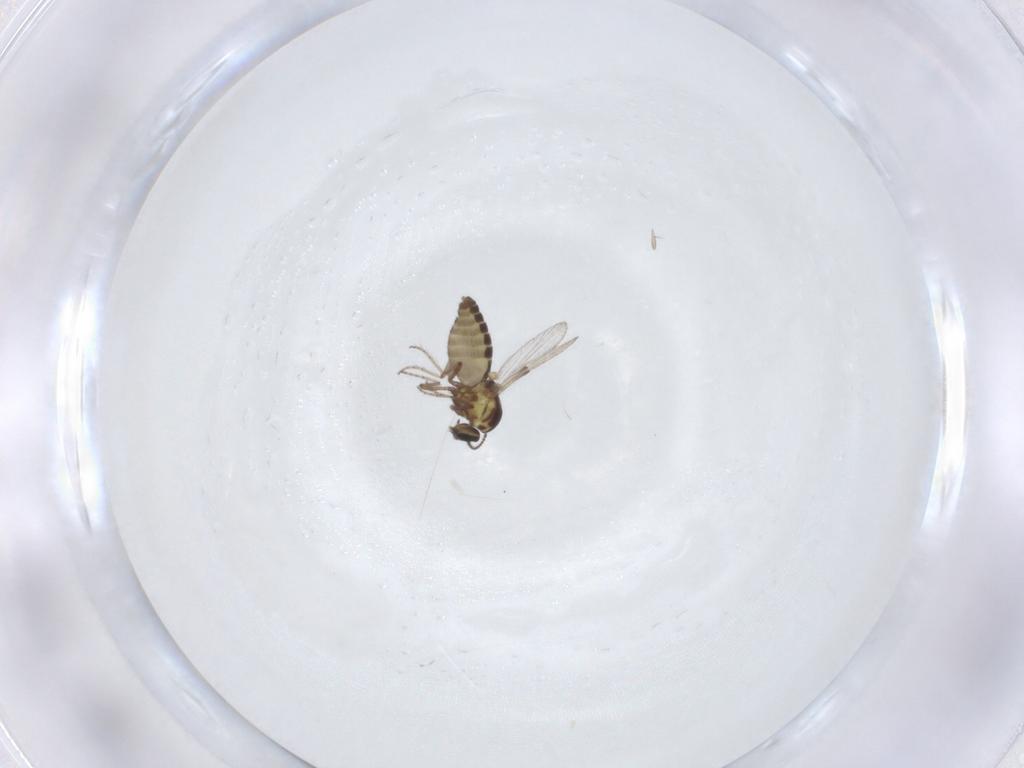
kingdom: Animalia
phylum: Arthropoda
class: Insecta
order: Diptera
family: Ceratopogonidae
